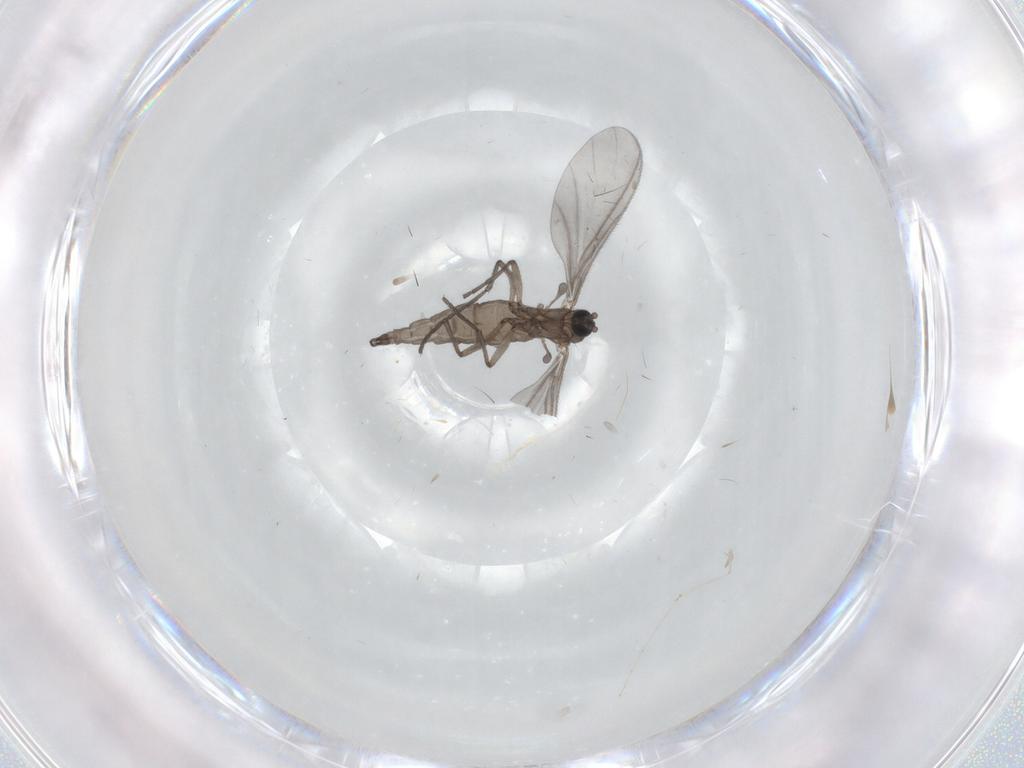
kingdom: Animalia
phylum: Arthropoda
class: Insecta
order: Diptera
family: Sciaridae
